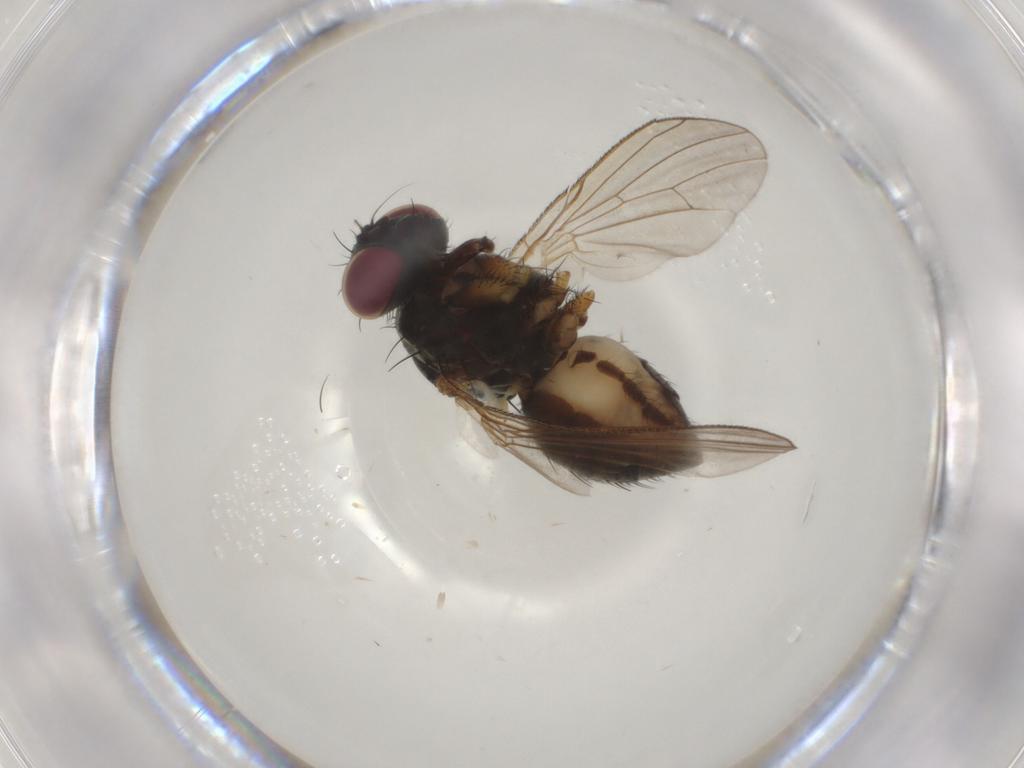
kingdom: Animalia
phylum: Arthropoda
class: Insecta
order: Diptera
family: Muscidae
